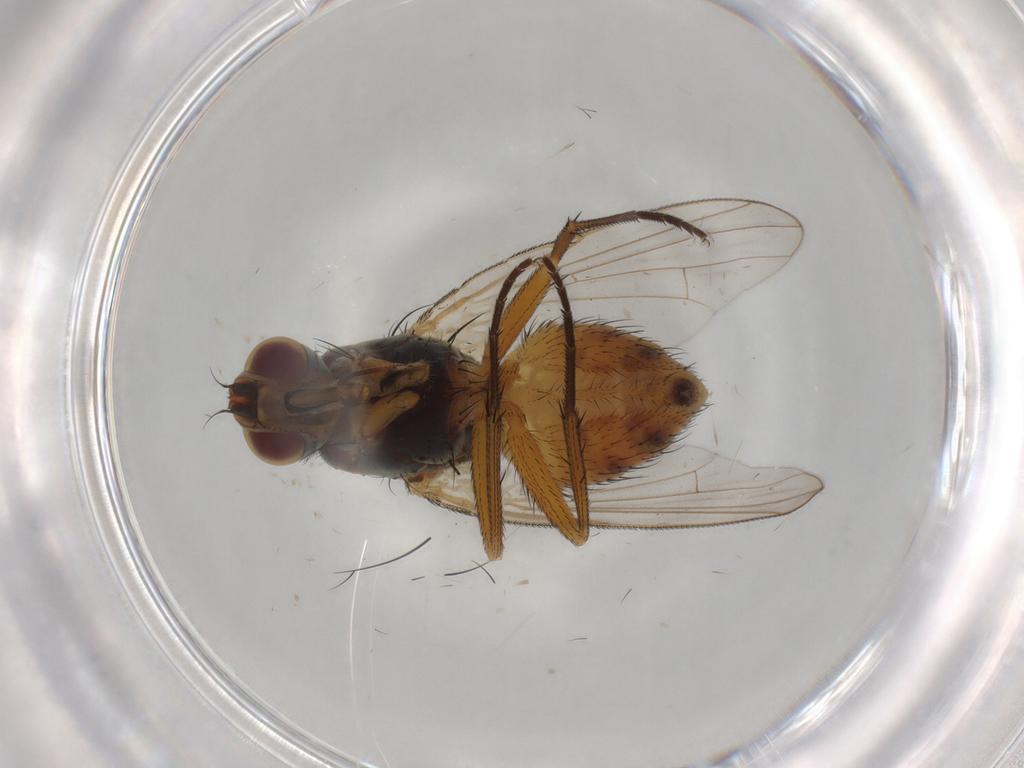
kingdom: Animalia
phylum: Arthropoda
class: Insecta
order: Diptera
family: Muscidae
